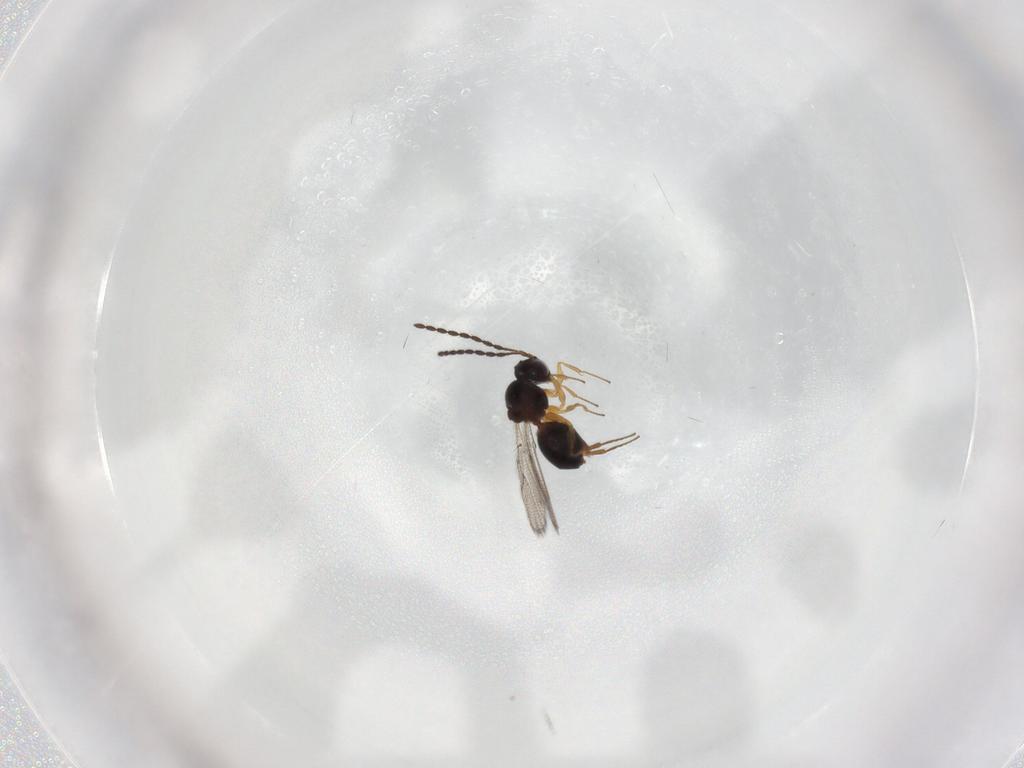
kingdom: Animalia
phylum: Arthropoda
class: Insecta
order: Hymenoptera
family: Figitidae
